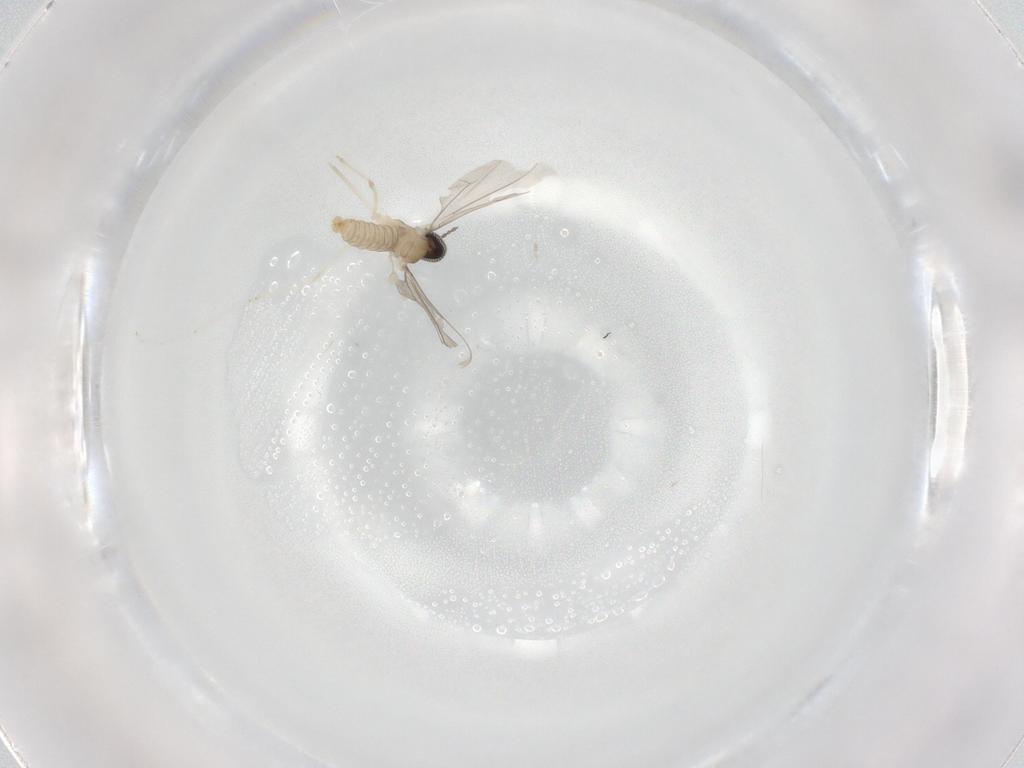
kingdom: Animalia
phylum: Arthropoda
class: Insecta
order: Diptera
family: Cecidomyiidae
